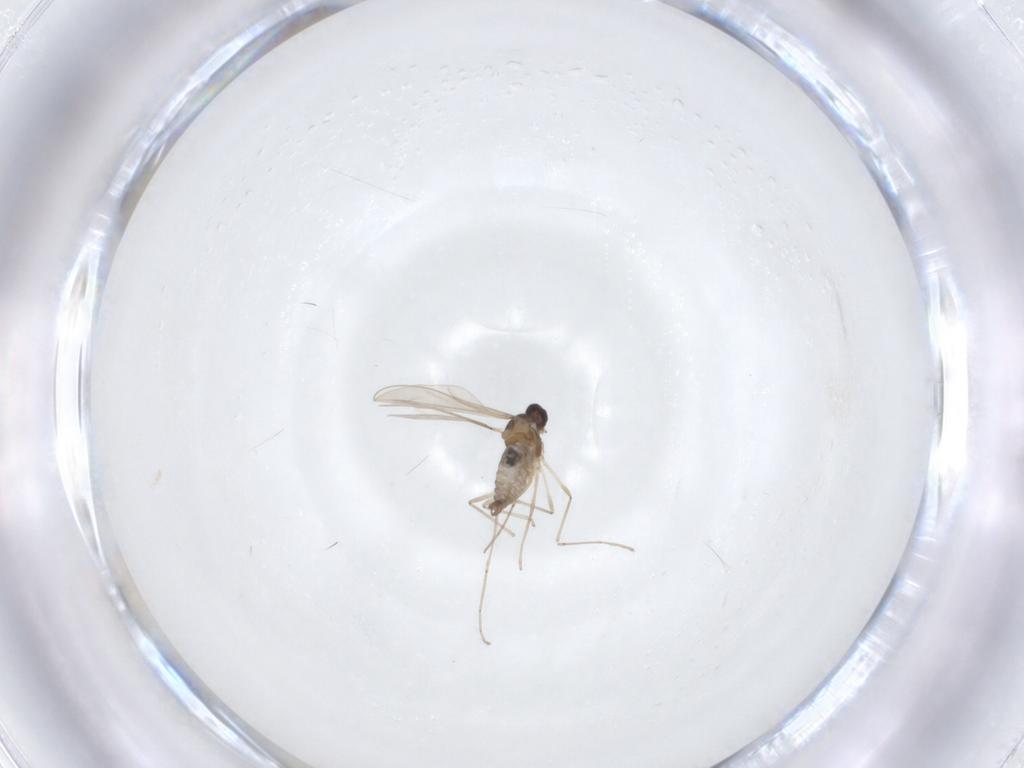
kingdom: Animalia
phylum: Arthropoda
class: Insecta
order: Diptera
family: Cecidomyiidae
